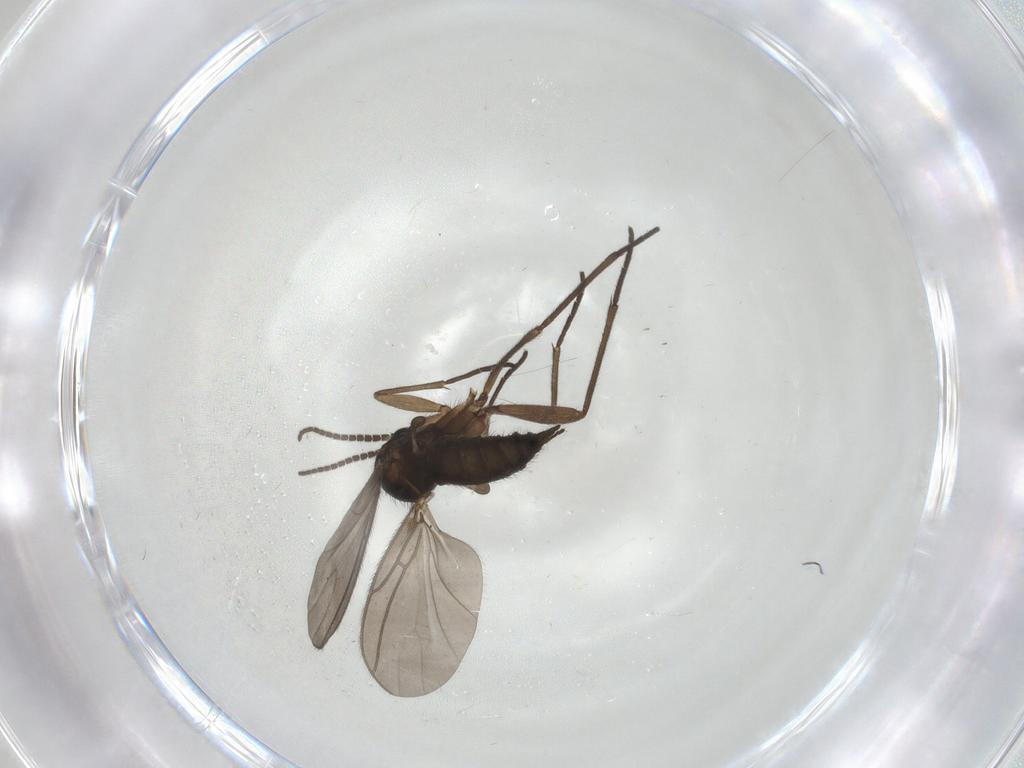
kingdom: Animalia
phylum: Arthropoda
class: Insecta
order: Diptera
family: Sciaridae
